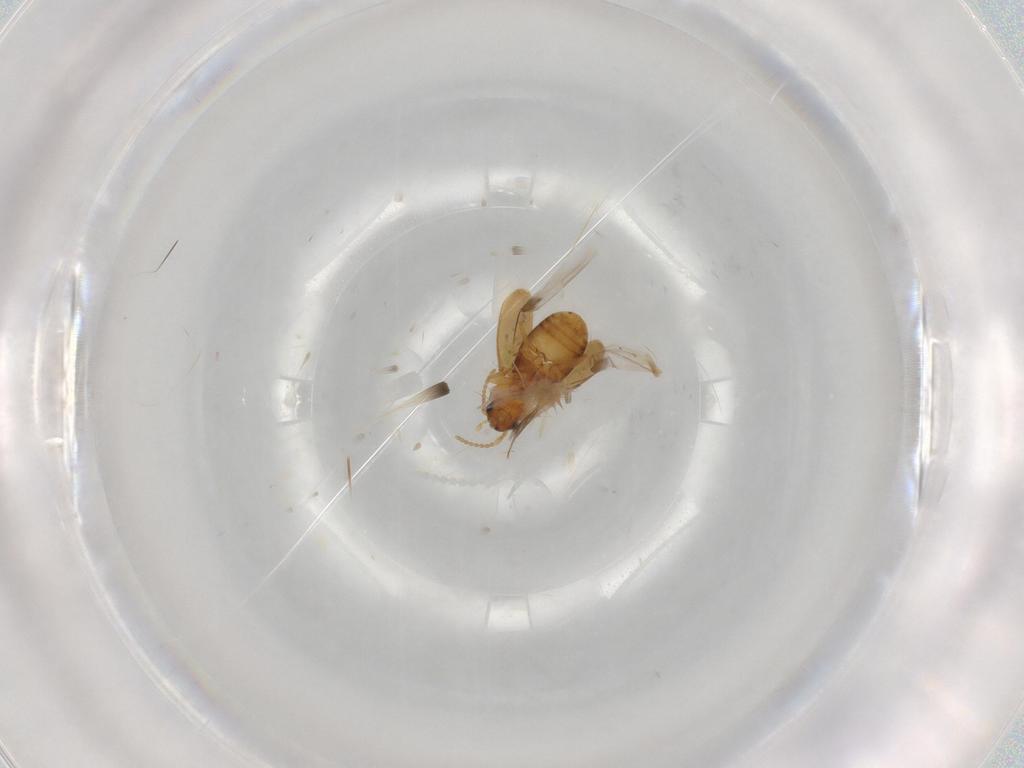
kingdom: Animalia
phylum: Arthropoda
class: Insecta
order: Coleoptera
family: Carabidae
